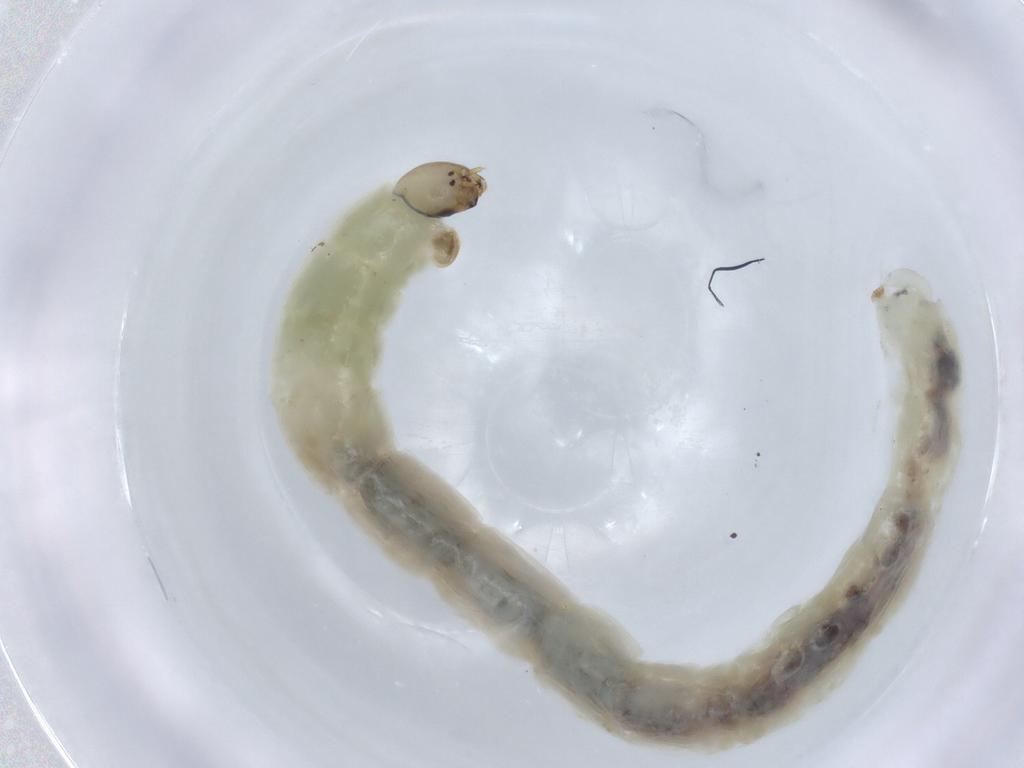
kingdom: Animalia
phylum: Arthropoda
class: Insecta
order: Diptera
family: Chironomidae
